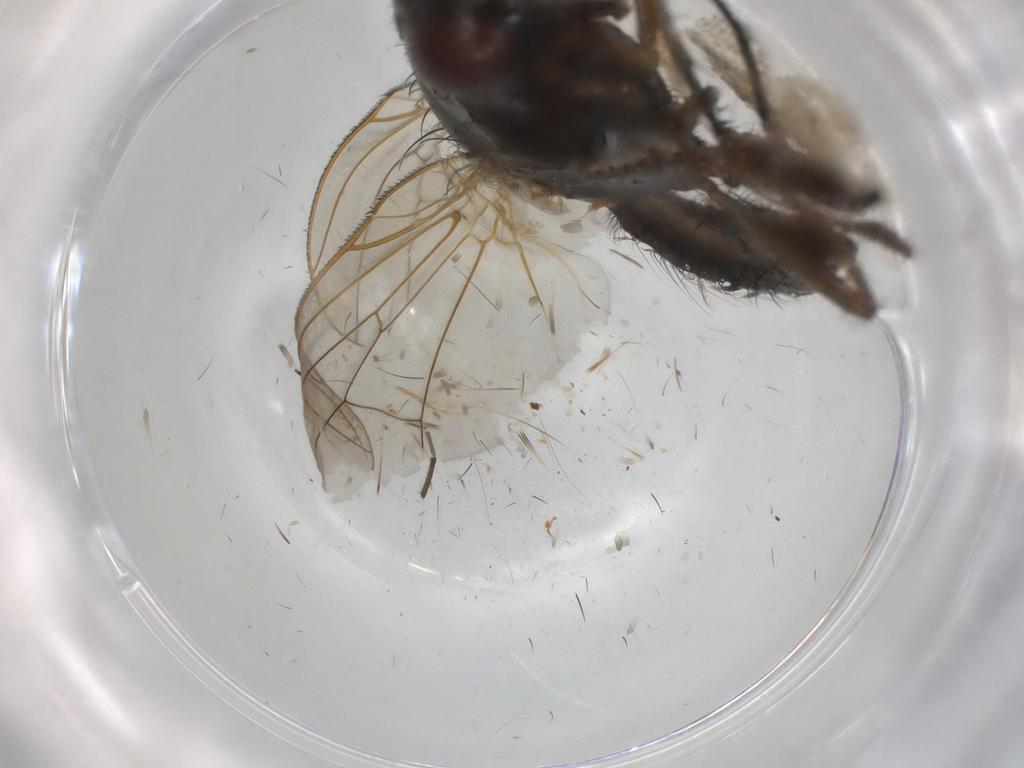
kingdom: Animalia
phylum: Arthropoda
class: Insecta
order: Diptera
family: Anthomyiidae
